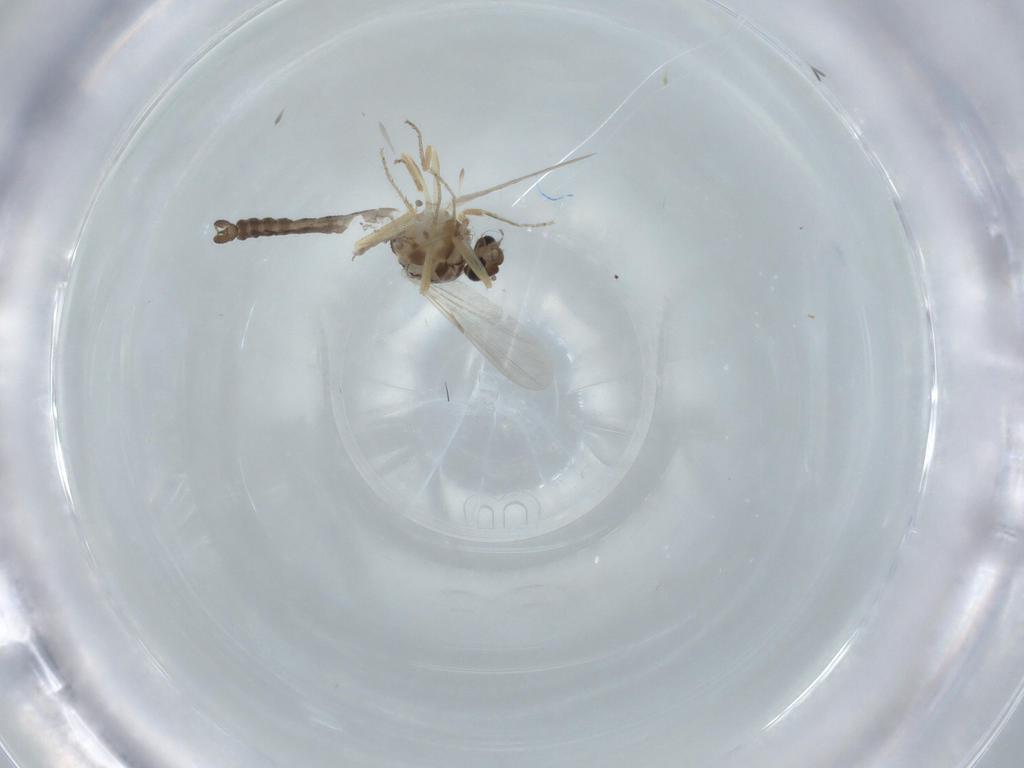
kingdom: Animalia
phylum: Arthropoda
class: Insecta
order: Diptera
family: Ceratopogonidae
